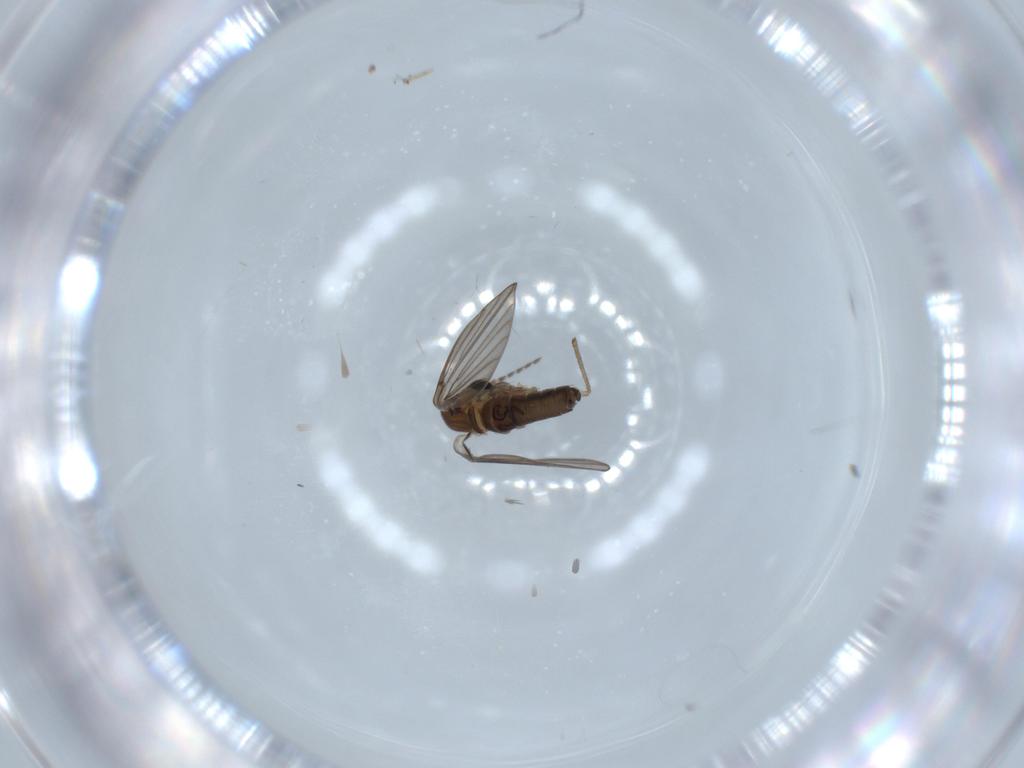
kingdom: Animalia
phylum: Arthropoda
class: Insecta
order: Diptera
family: Psychodidae
